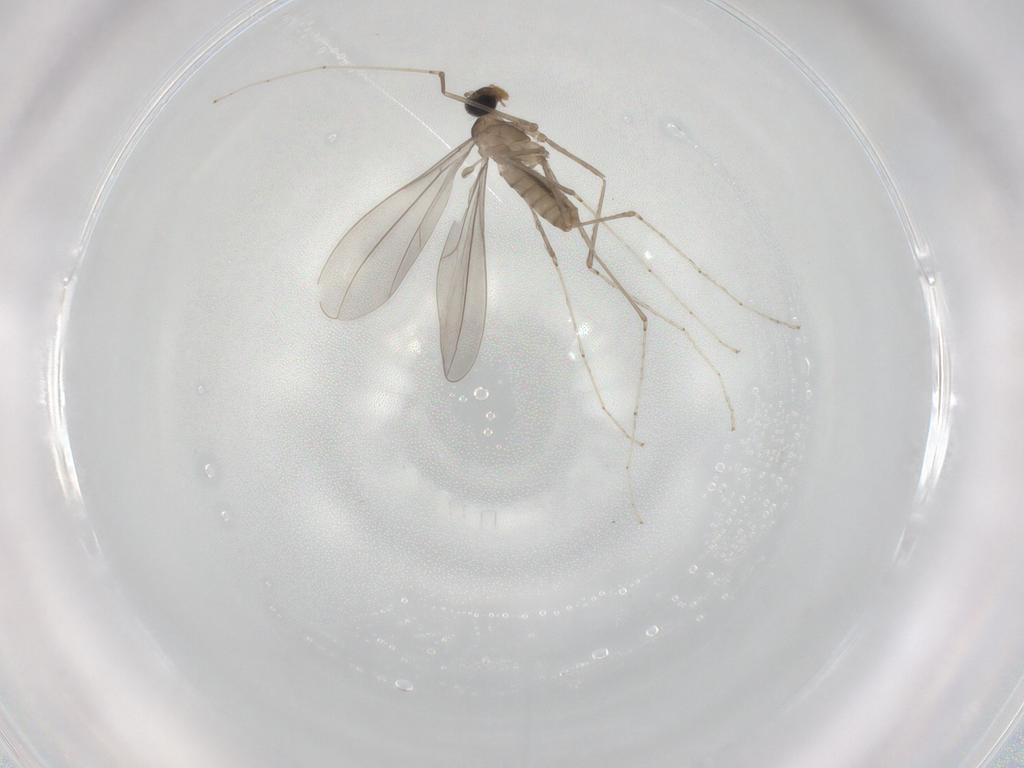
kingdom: Animalia
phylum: Arthropoda
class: Insecta
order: Diptera
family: Cecidomyiidae
